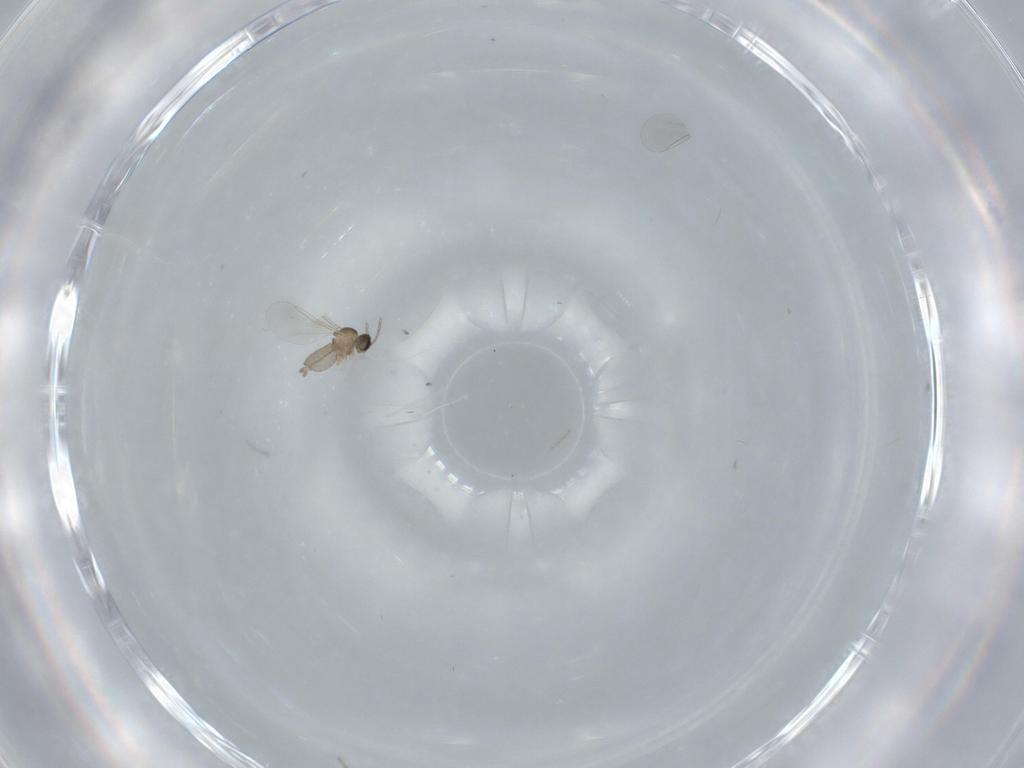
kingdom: Animalia
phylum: Arthropoda
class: Insecta
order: Diptera
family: Cecidomyiidae
